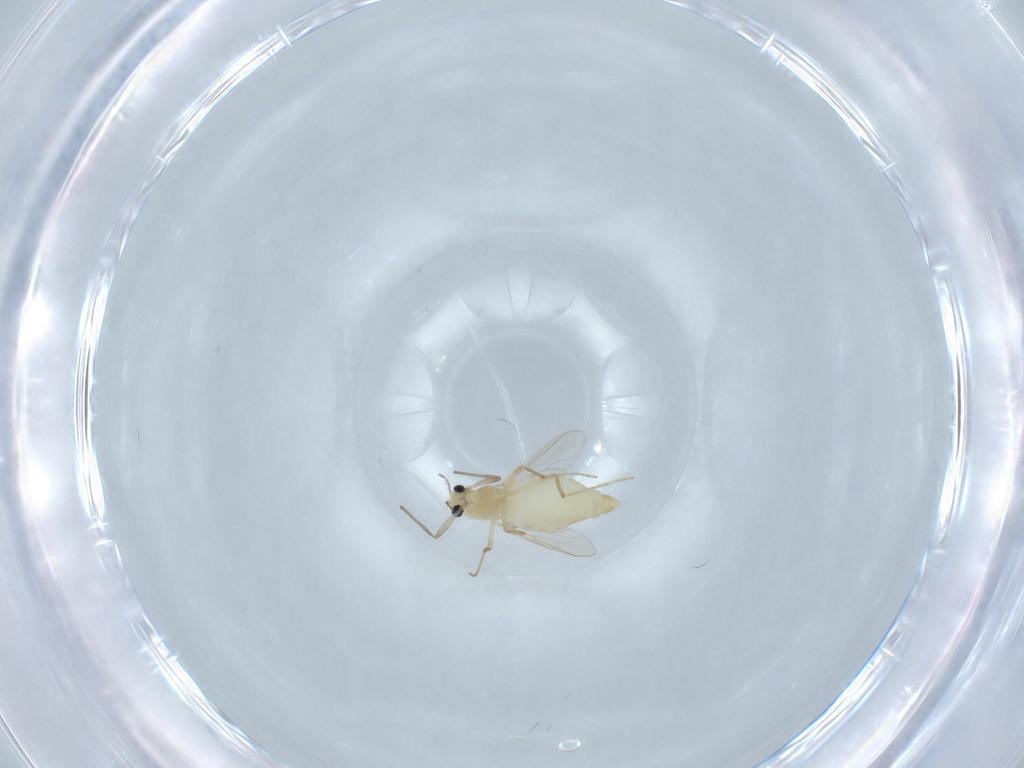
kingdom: Animalia
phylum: Arthropoda
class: Insecta
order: Diptera
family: Chironomidae
